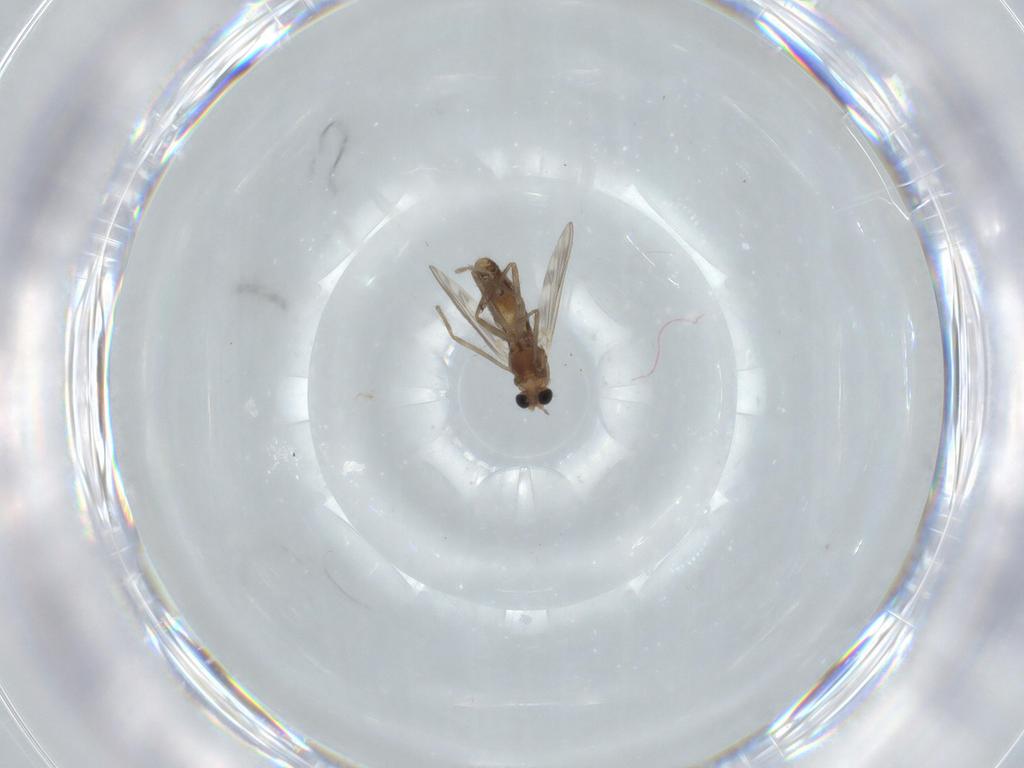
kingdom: Animalia
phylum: Arthropoda
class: Insecta
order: Diptera
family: Chironomidae
